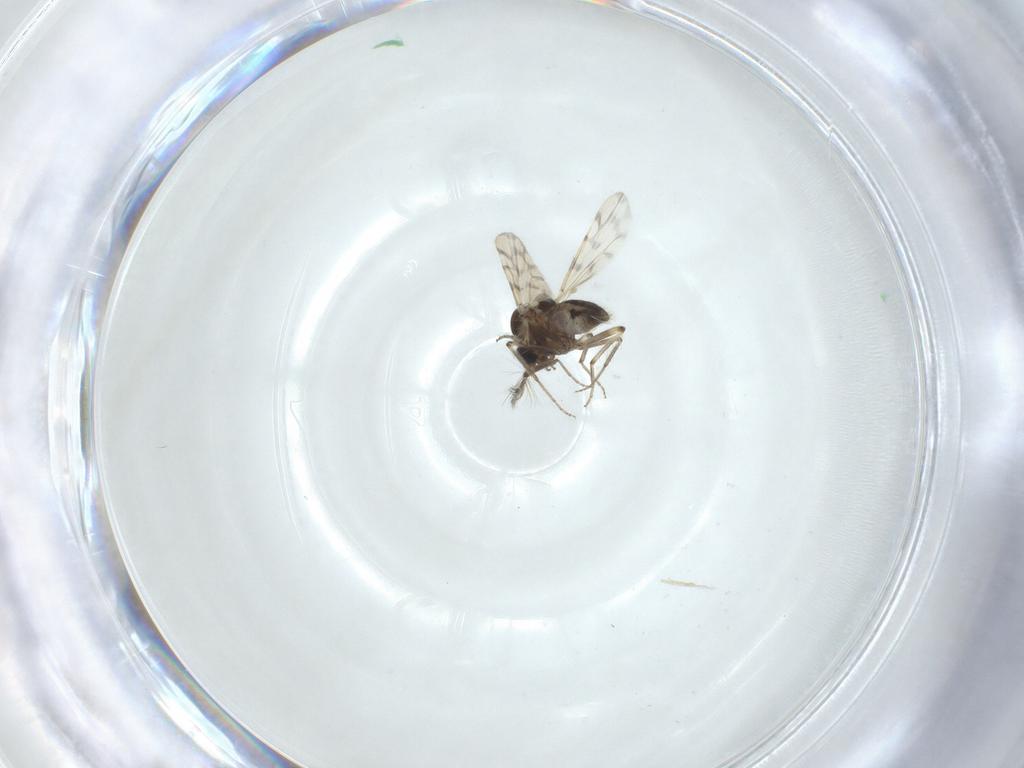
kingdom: Animalia
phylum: Arthropoda
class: Insecta
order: Diptera
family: Ceratopogonidae
